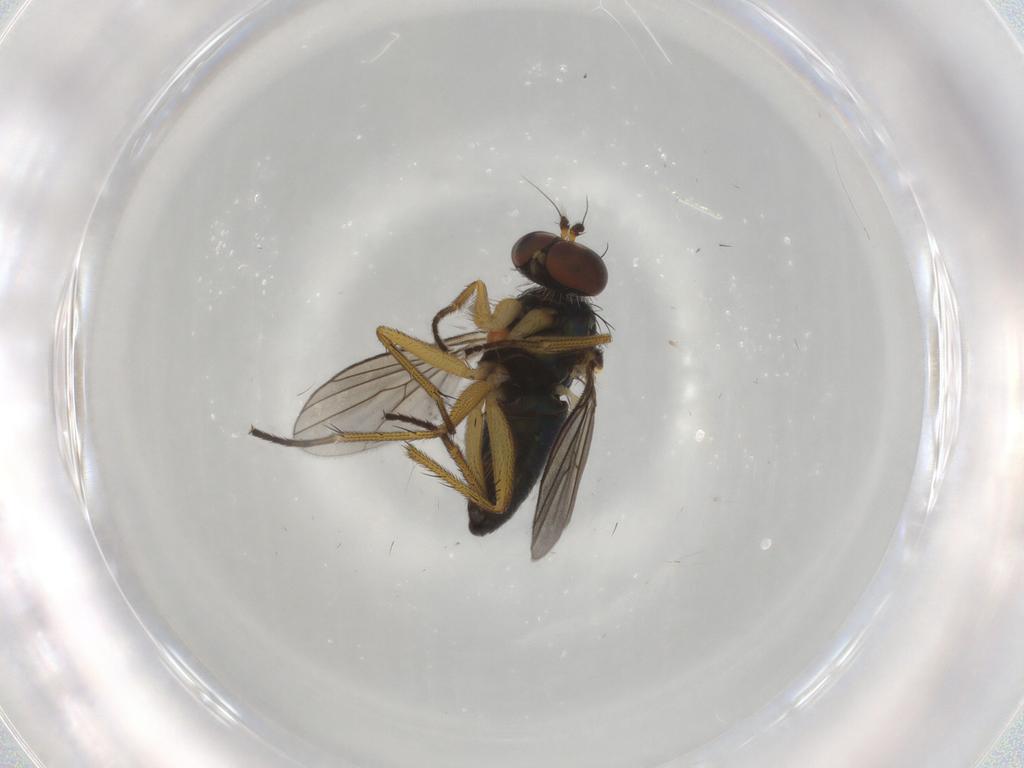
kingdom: Animalia
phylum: Arthropoda
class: Insecta
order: Diptera
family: Dolichopodidae
